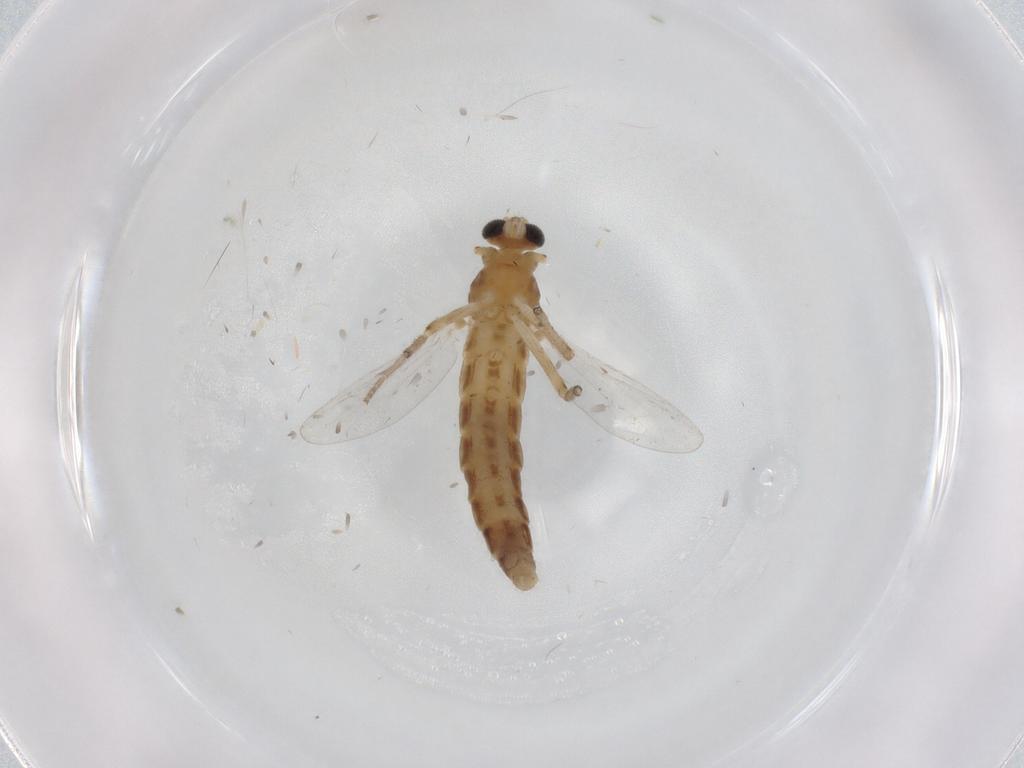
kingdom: Animalia
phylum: Arthropoda
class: Insecta
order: Diptera
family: Chironomidae
